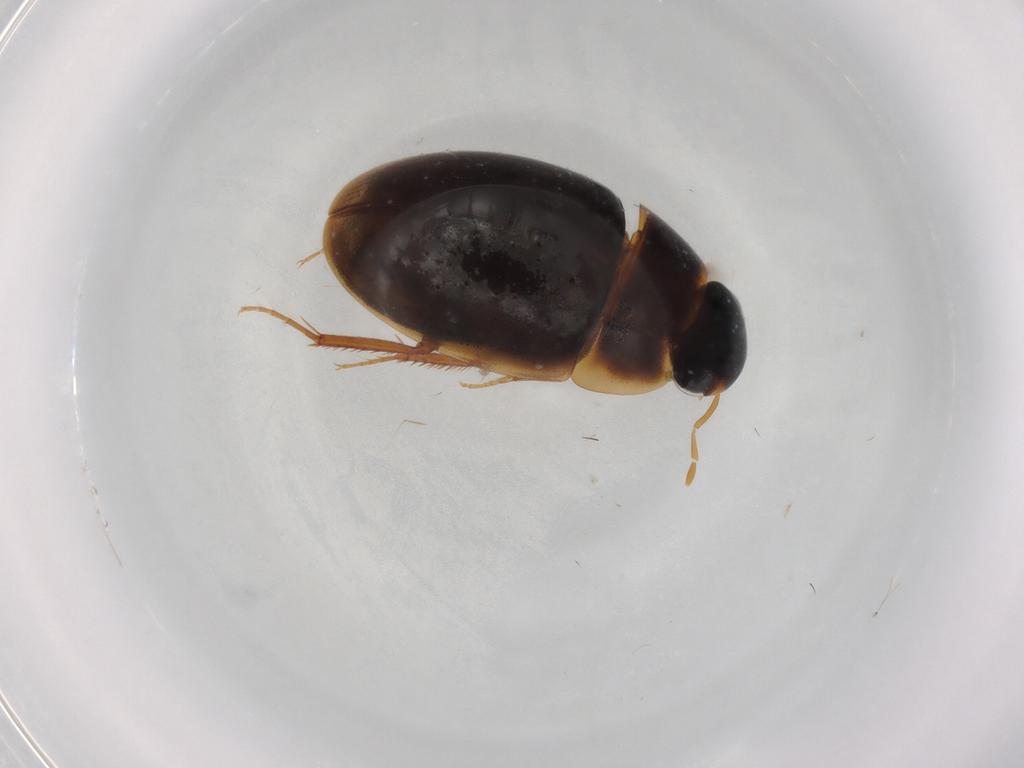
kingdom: Animalia
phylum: Arthropoda
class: Insecta
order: Coleoptera
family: Hydrophilidae
